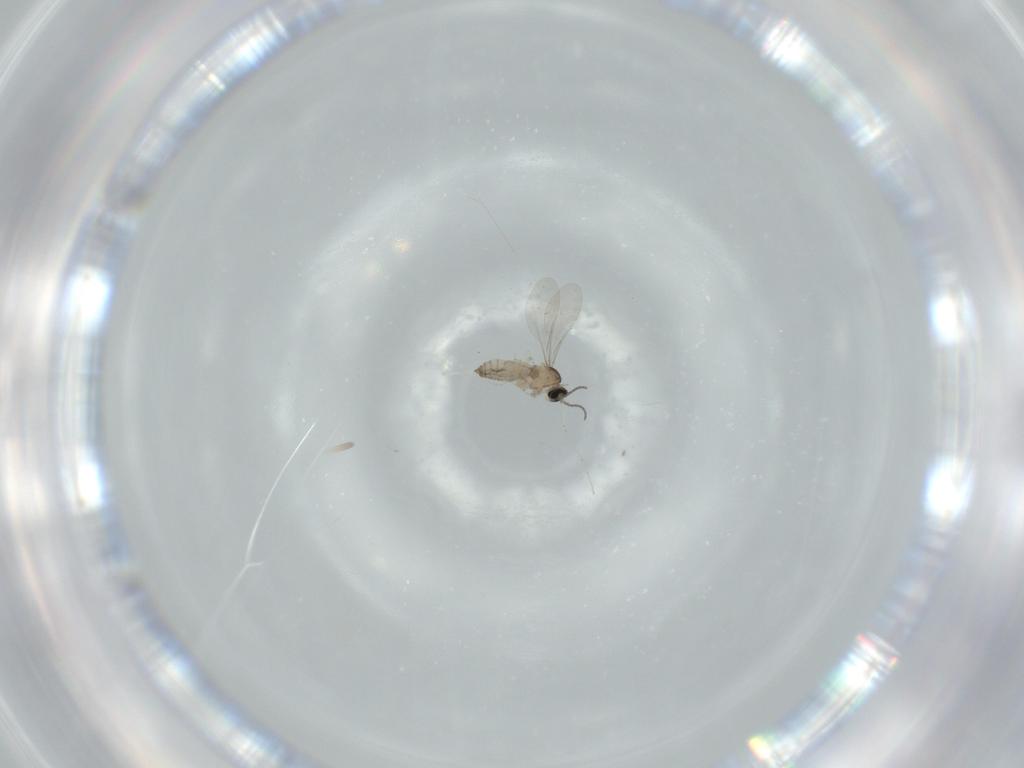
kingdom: Animalia
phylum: Arthropoda
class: Insecta
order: Diptera
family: Cecidomyiidae
